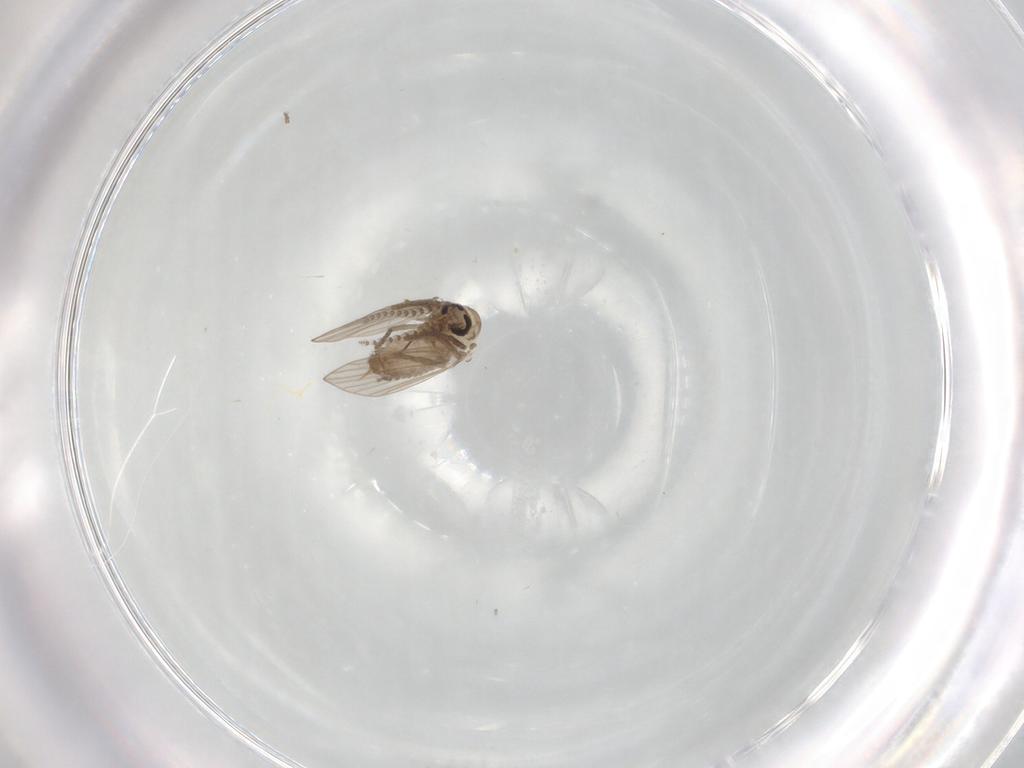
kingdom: Animalia
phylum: Arthropoda
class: Insecta
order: Diptera
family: Psychodidae
